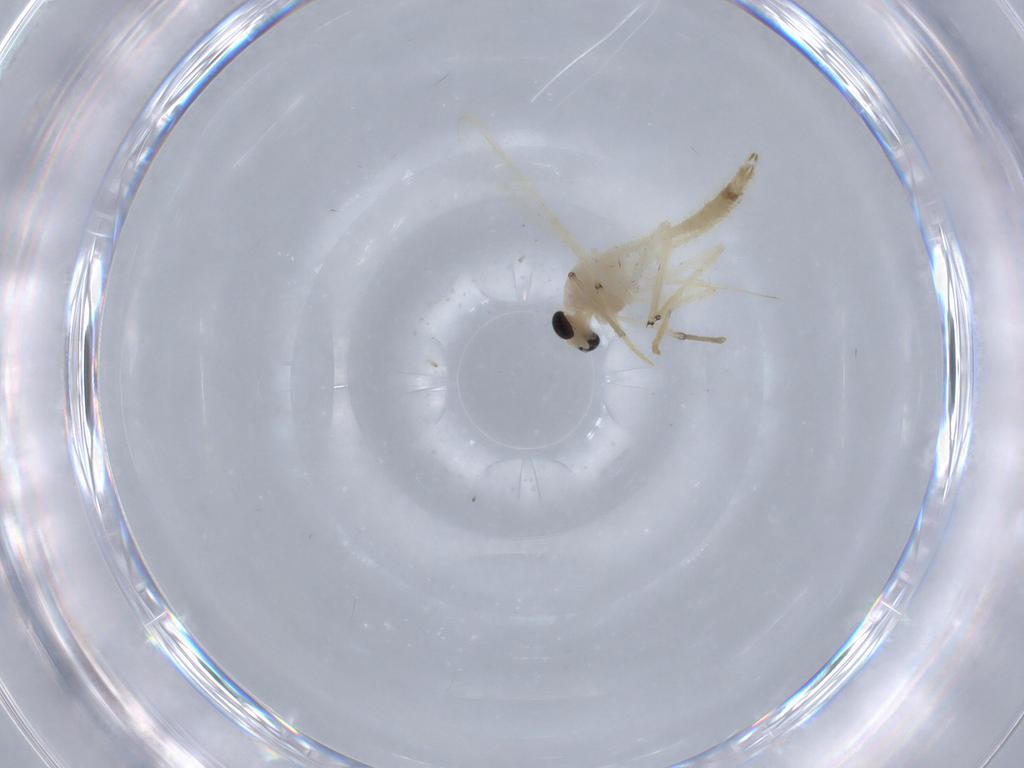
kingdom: Animalia
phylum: Arthropoda
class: Insecta
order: Diptera
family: Chironomidae
